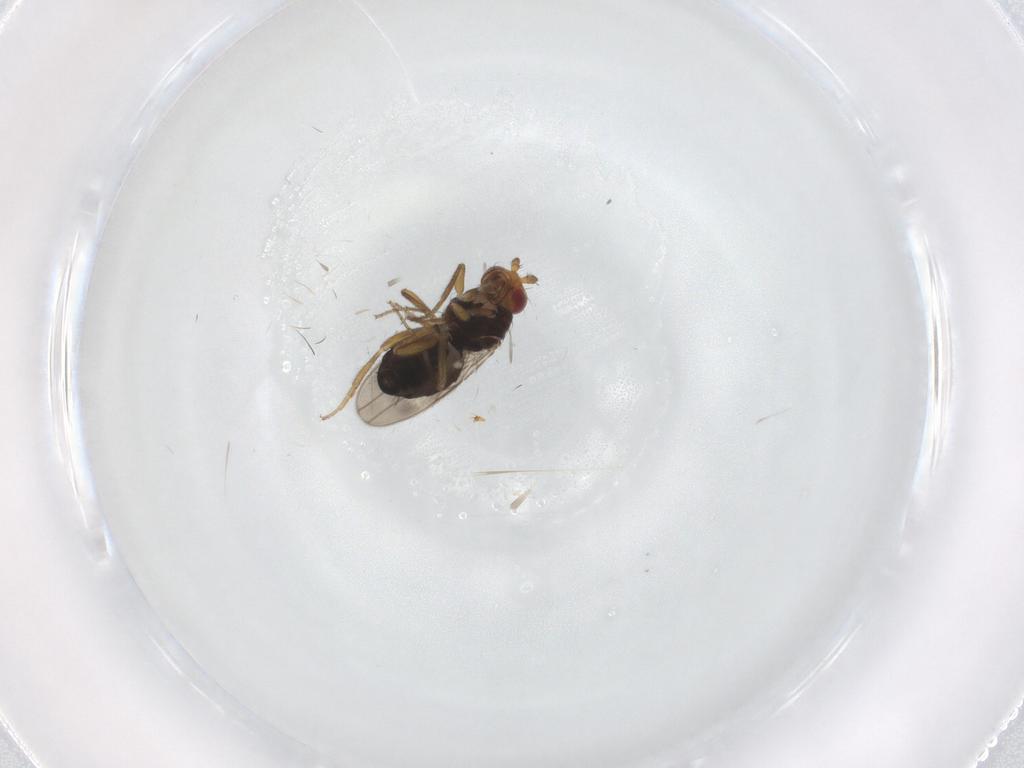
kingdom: Animalia
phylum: Arthropoda
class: Insecta
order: Diptera
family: Sphaeroceridae
